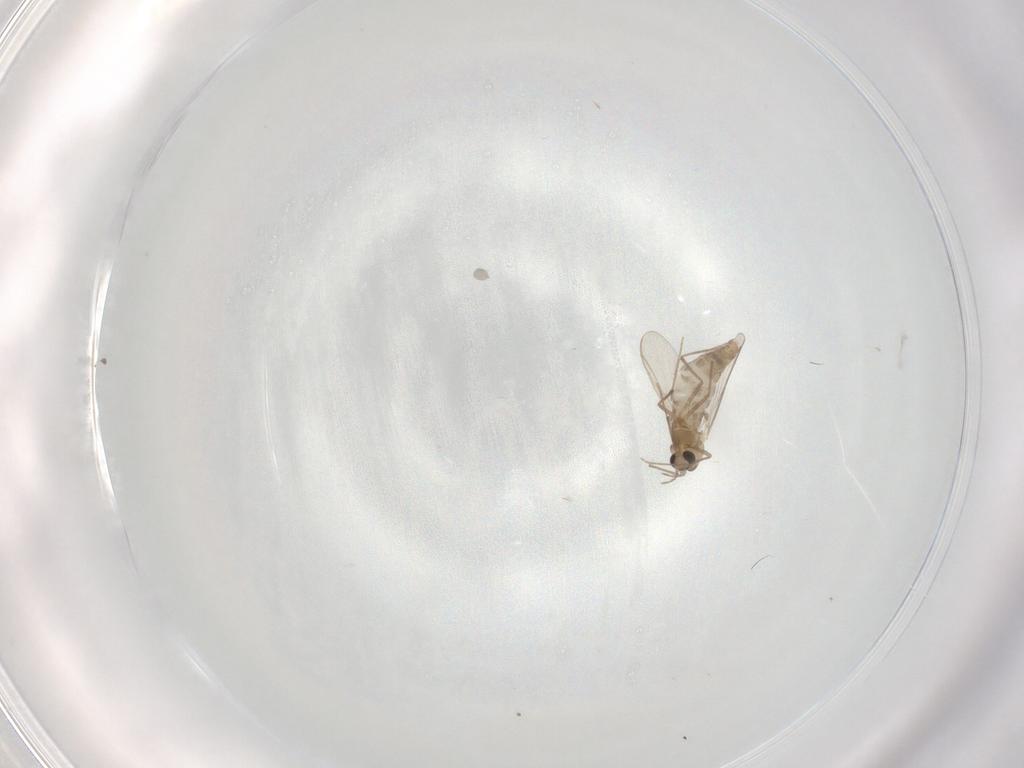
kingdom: Animalia
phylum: Arthropoda
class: Insecta
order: Diptera
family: Chironomidae
